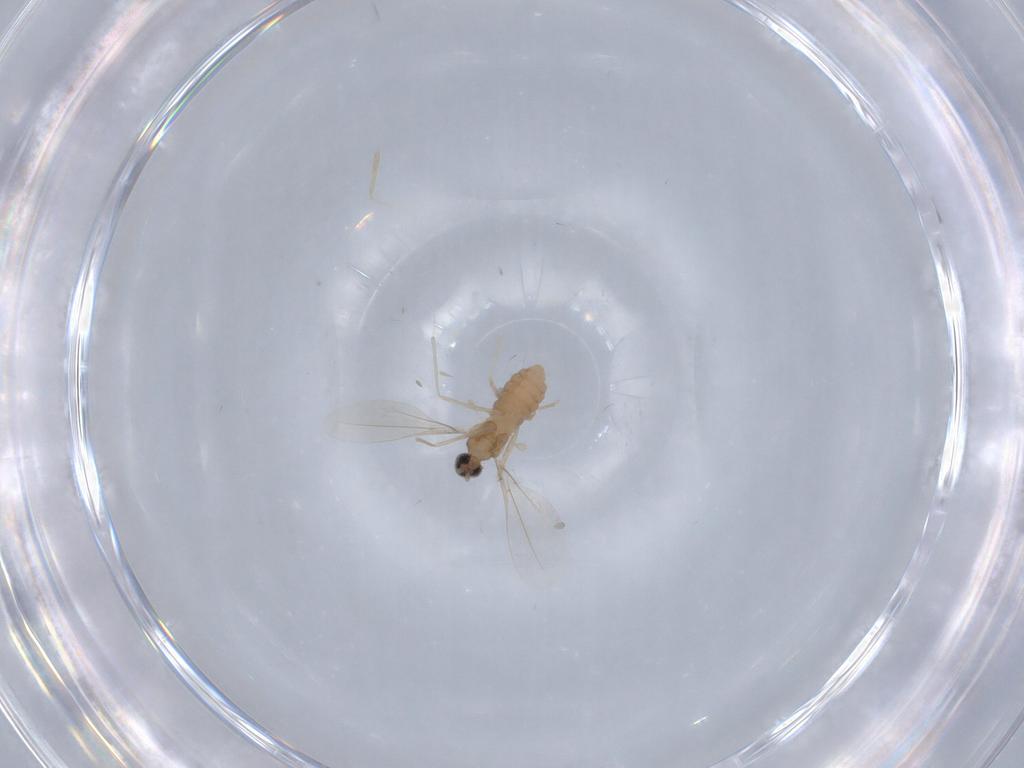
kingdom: Animalia
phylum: Arthropoda
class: Insecta
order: Diptera
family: Cecidomyiidae
